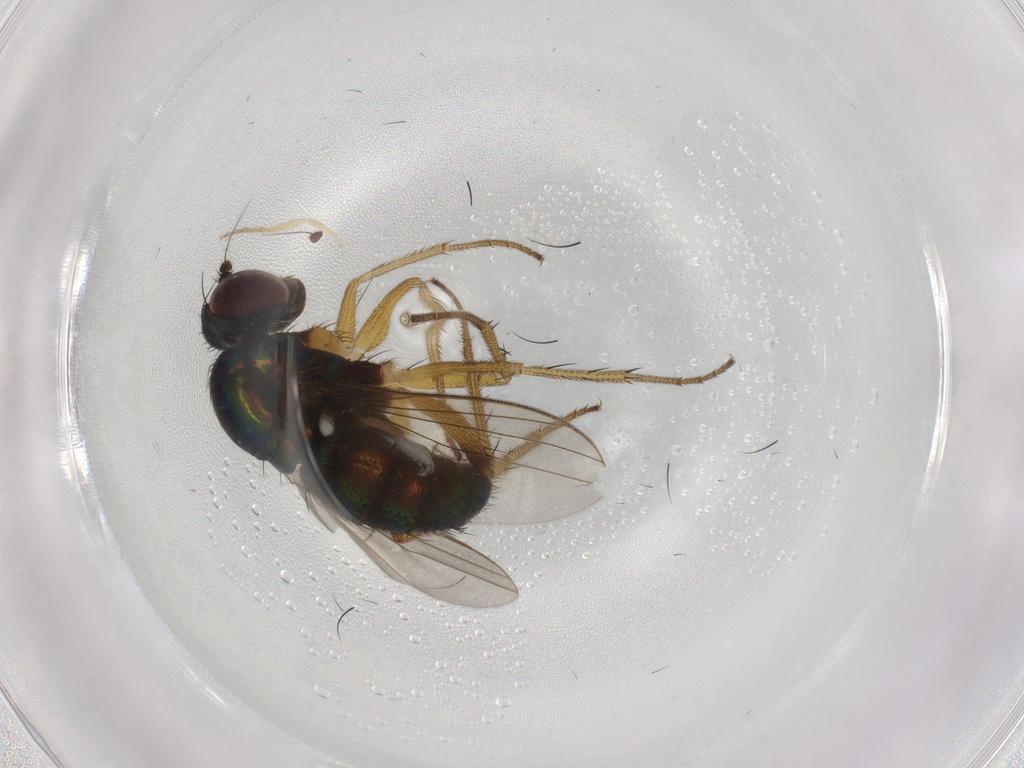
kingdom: Animalia
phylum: Arthropoda
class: Insecta
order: Diptera
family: Dolichopodidae
